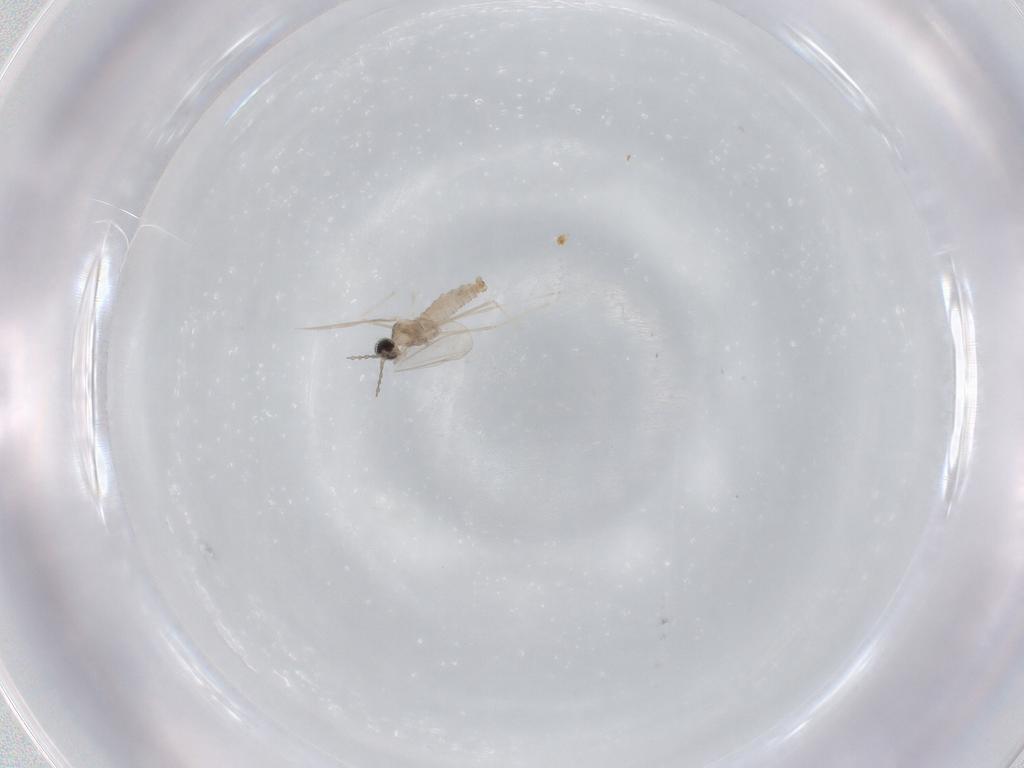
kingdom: Animalia
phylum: Arthropoda
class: Insecta
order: Diptera
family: Cecidomyiidae
